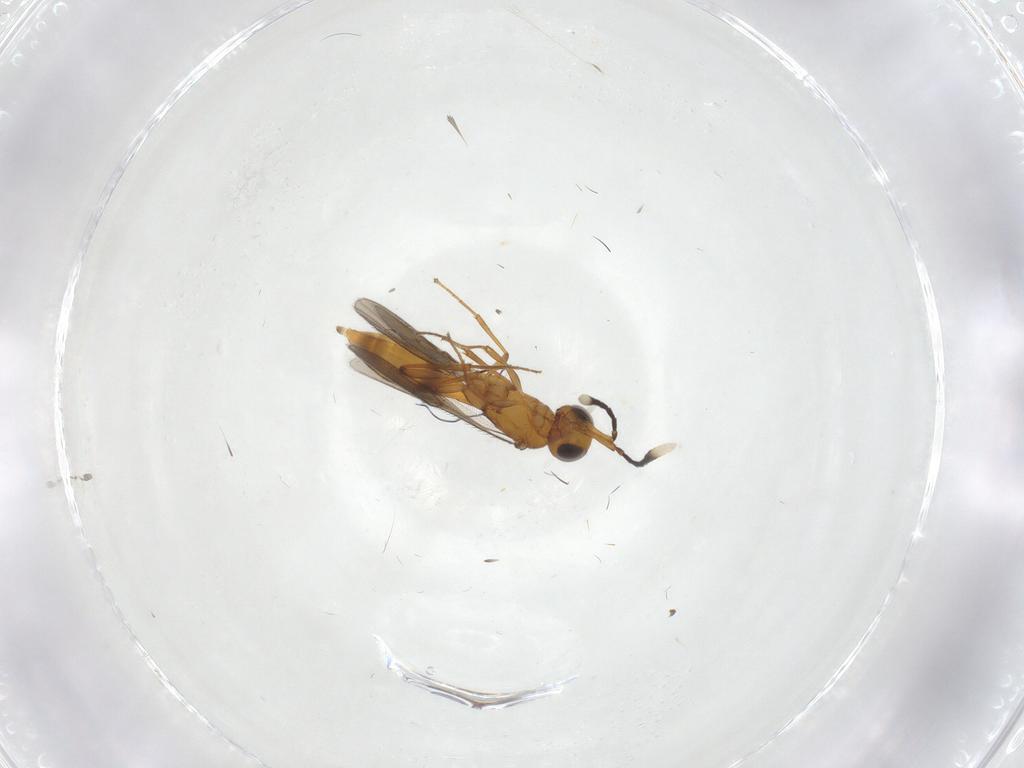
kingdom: Animalia
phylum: Arthropoda
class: Insecta
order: Hymenoptera
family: Scelionidae
